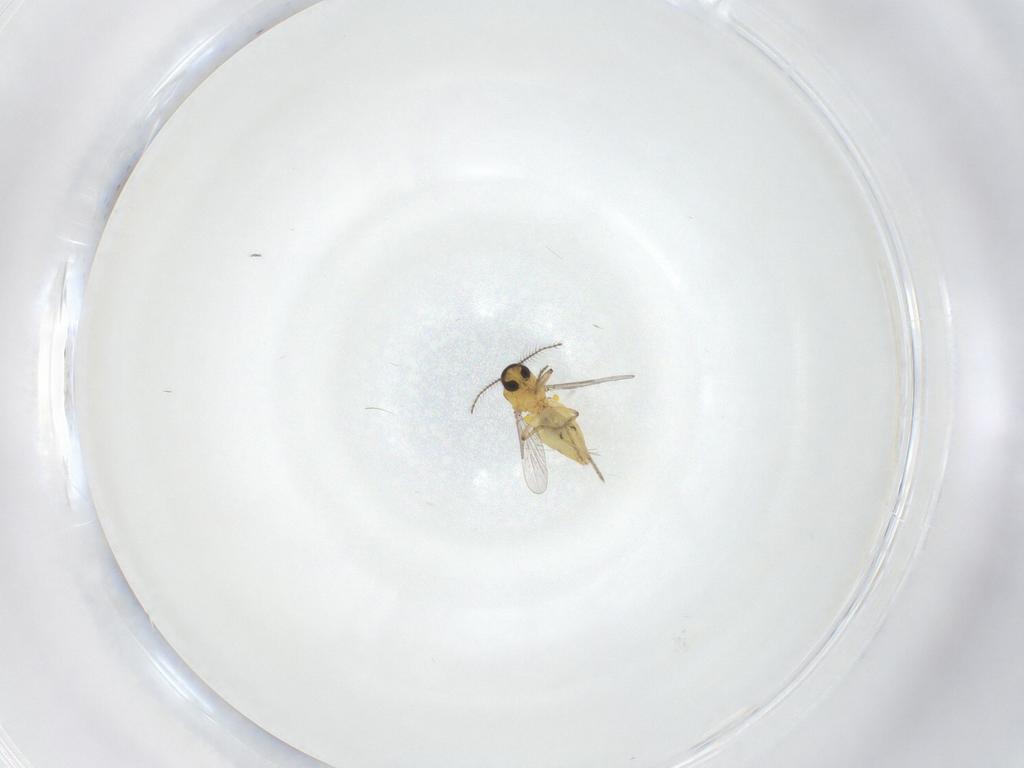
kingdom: Animalia
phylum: Arthropoda
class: Insecta
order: Diptera
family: Ceratopogonidae
